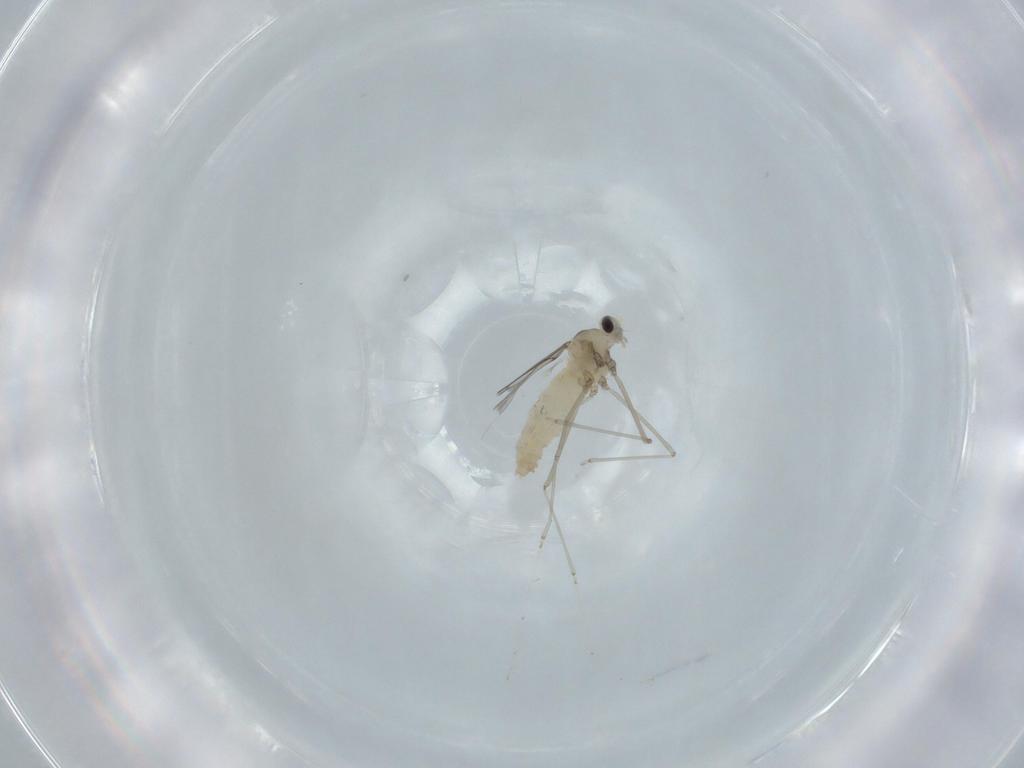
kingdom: Animalia
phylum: Arthropoda
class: Insecta
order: Diptera
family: Cecidomyiidae
